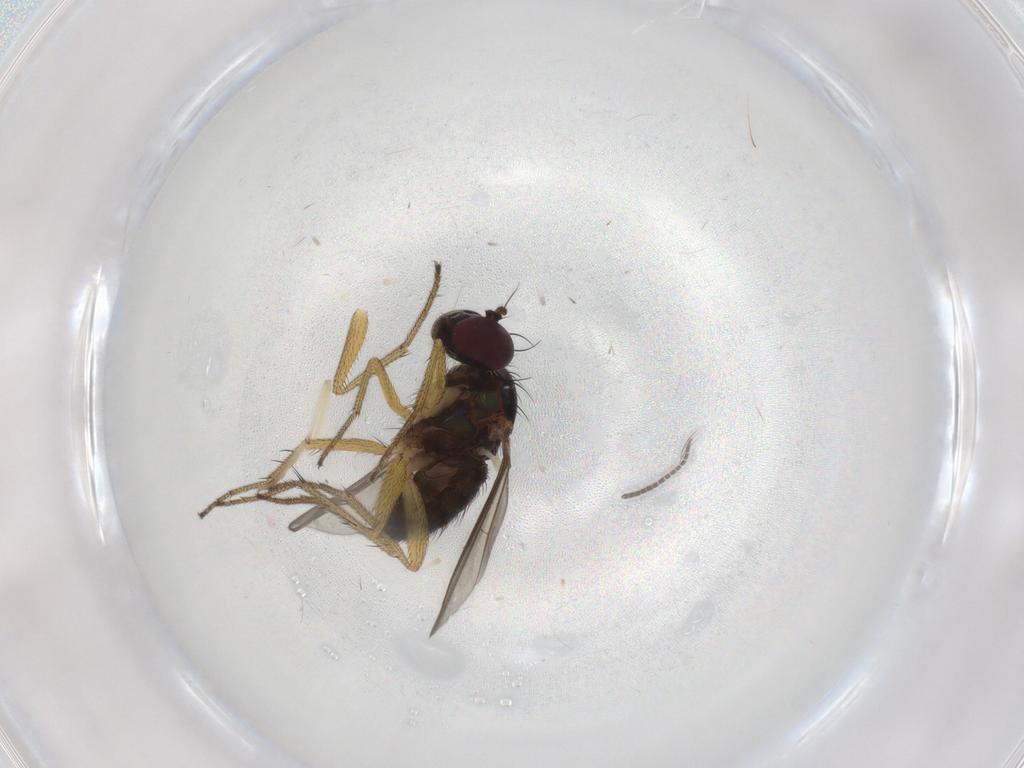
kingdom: Animalia
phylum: Arthropoda
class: Insecta
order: Diptera
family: Dolichopodidae
